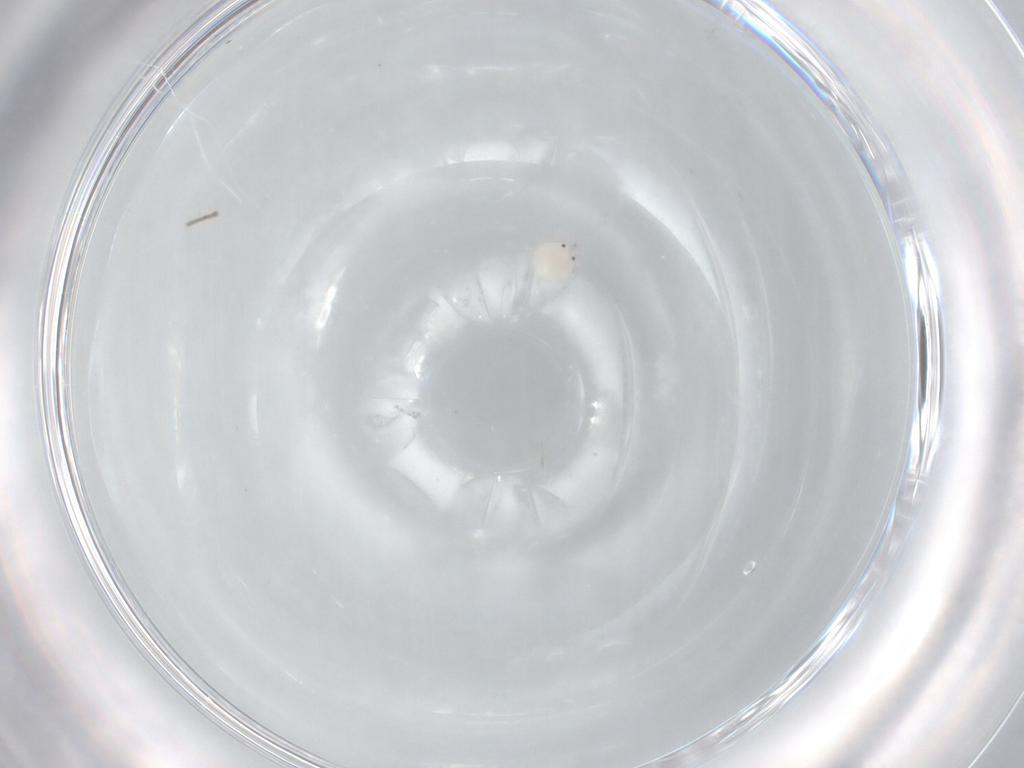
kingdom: Animalia
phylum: Arthropoda
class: Arachnida
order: Trombidiformes
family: Arrenuridae
